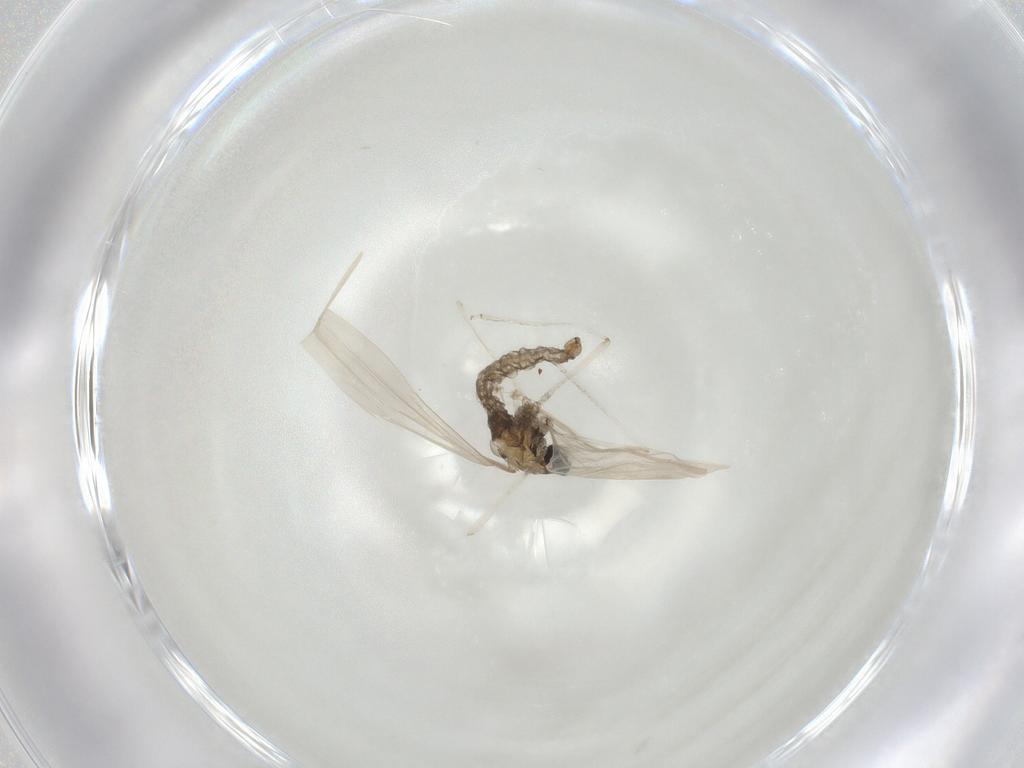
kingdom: Animalia
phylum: Arthropoda
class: Insecta
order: Diptera
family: Cecidomyiidae
